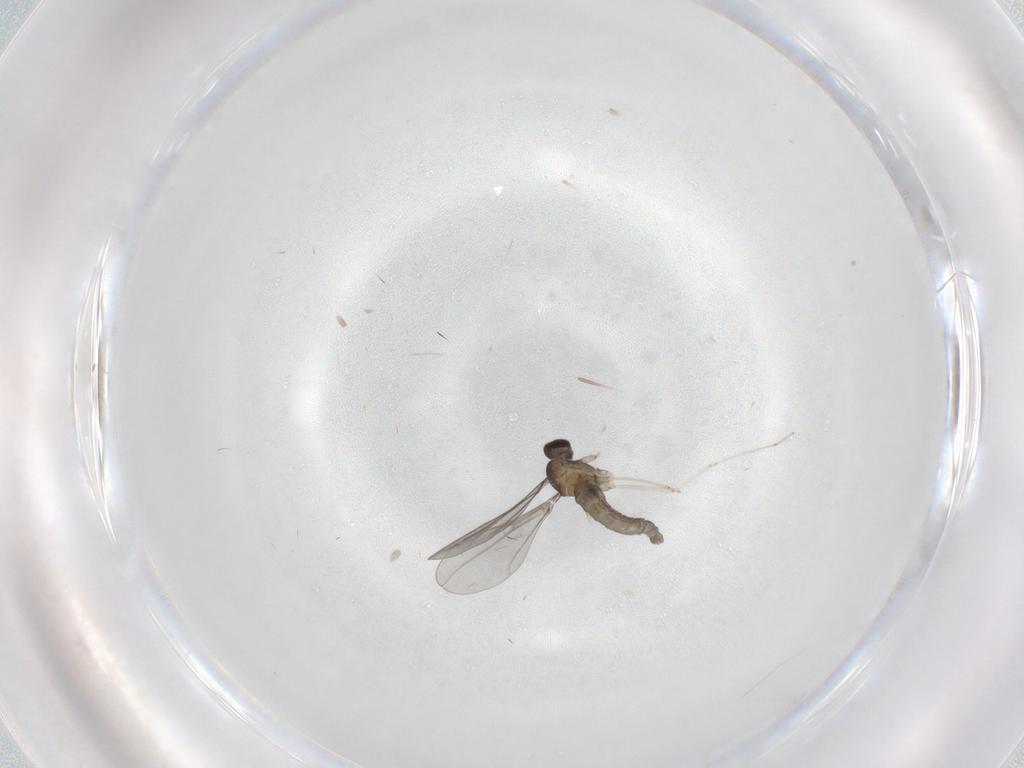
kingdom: Animalia
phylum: Arthropoda
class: Insecta
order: Diptera
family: Cecidomyiidae
